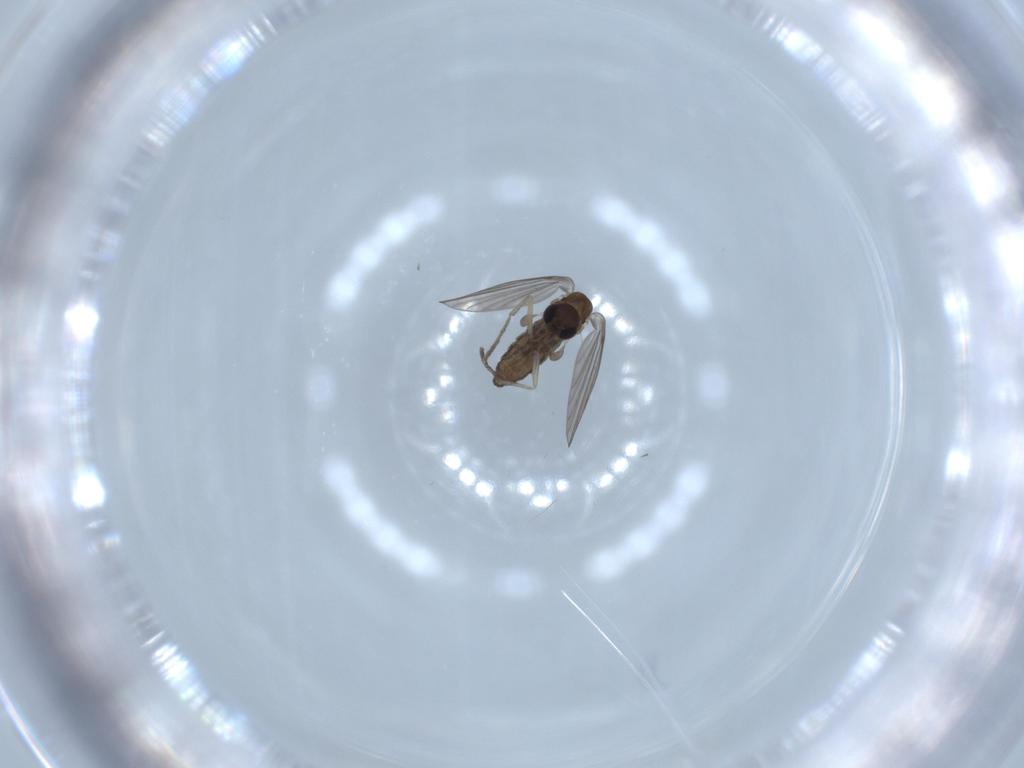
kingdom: Animalia
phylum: Arthropoda
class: Insecta
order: Diptera
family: Psychodidae
